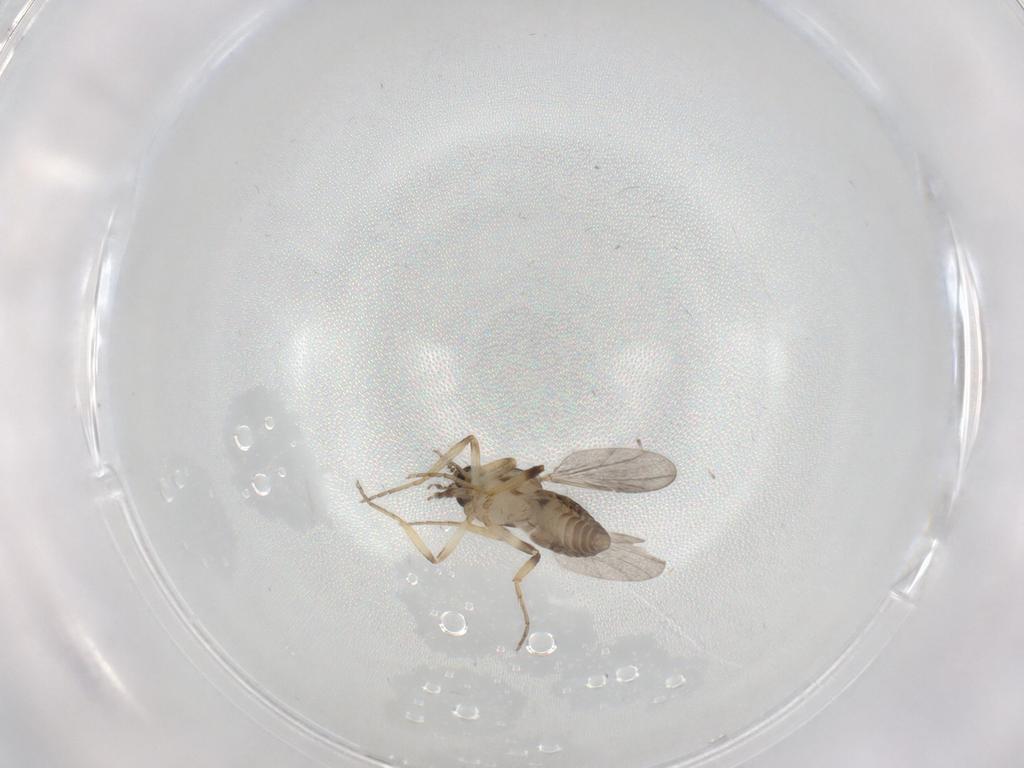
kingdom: Animalia
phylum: Arthropoda
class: Insecta
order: Diptera
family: Ceratopogonidae
